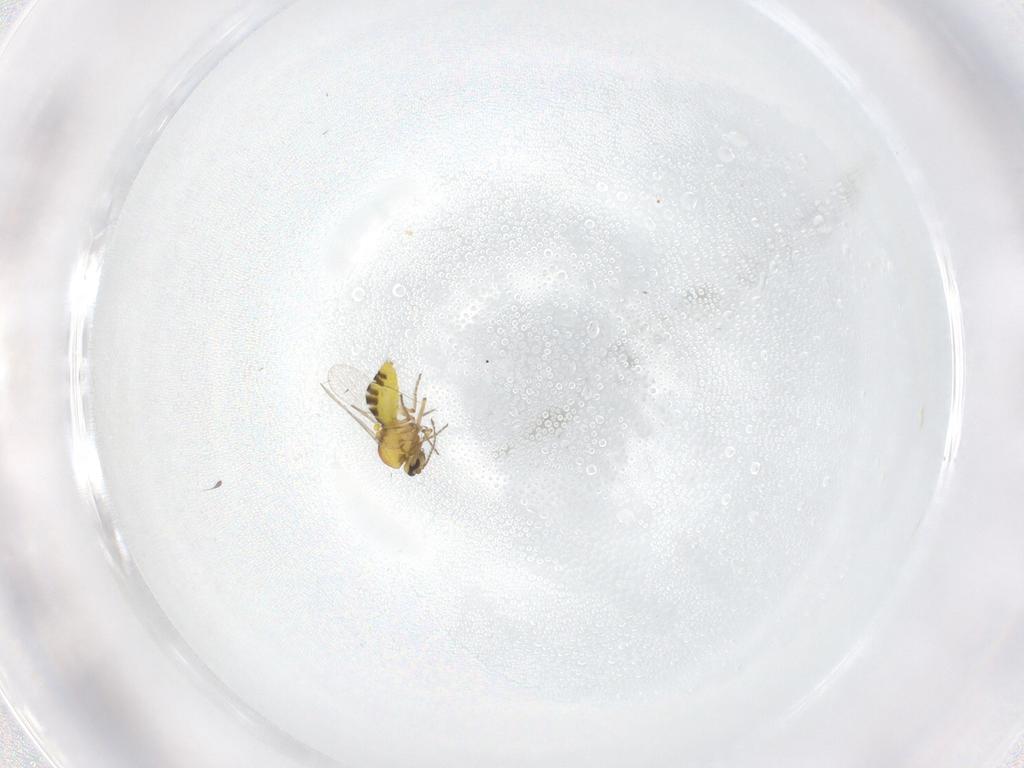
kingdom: Animalia
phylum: Arthropoda
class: Insecta
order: Diptera
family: Ceratopogonidae
